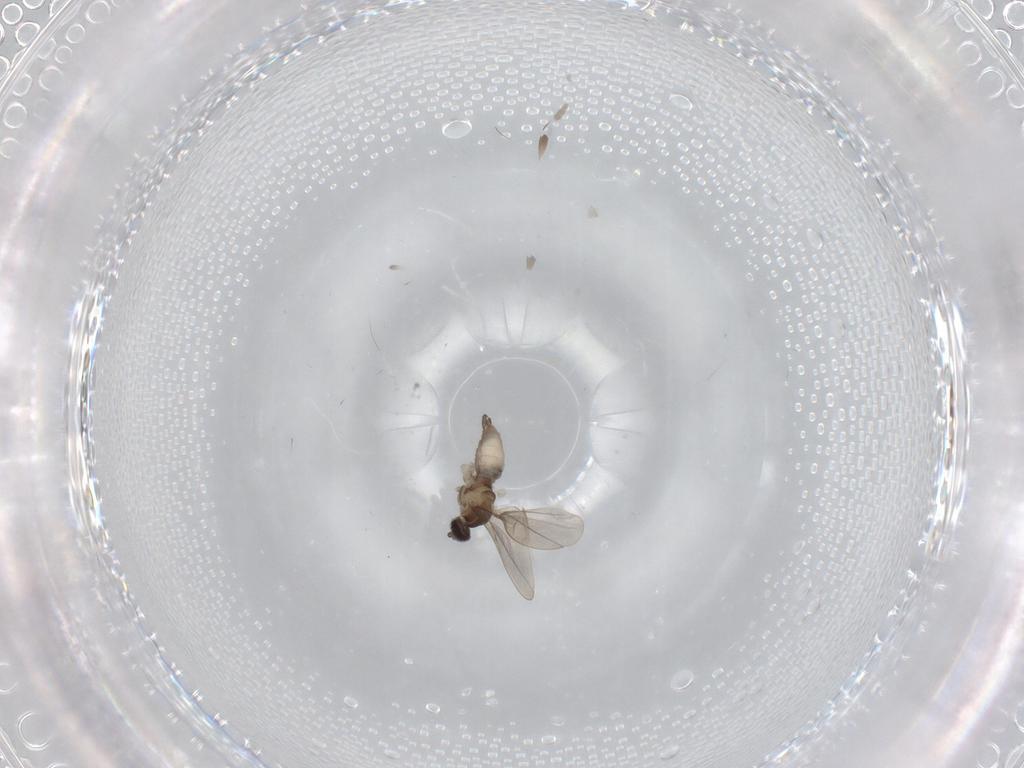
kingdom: Animalia
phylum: Arthropoda
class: Insecta
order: Diptera
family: Cecidomyiidae
